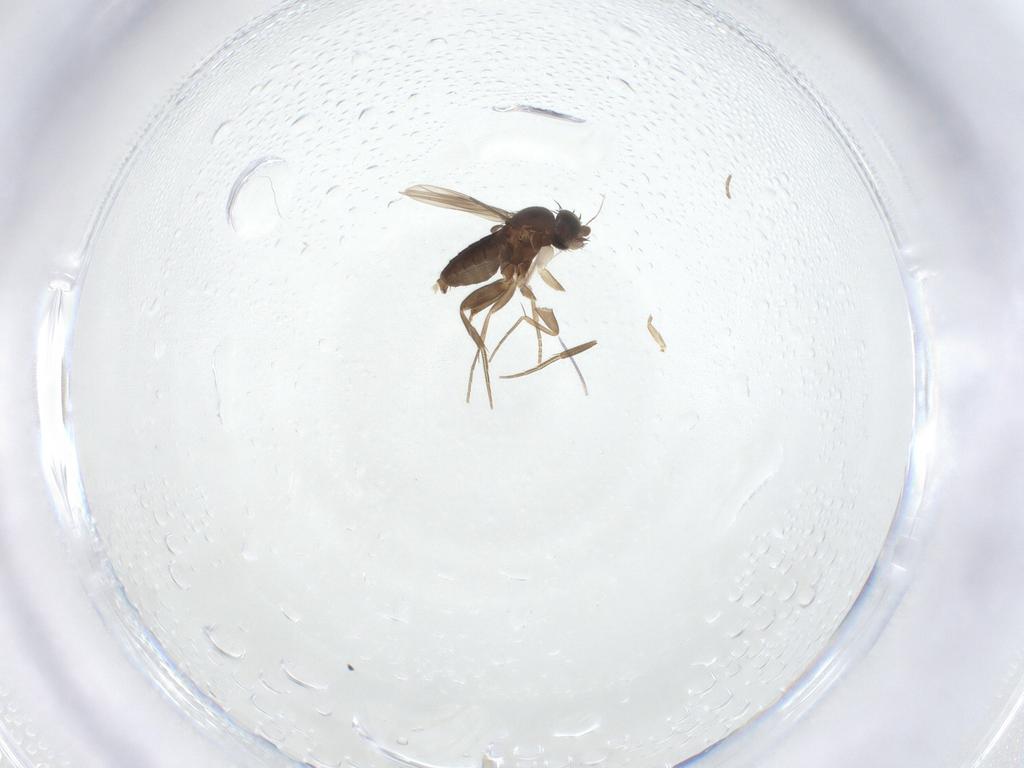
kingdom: Animalia
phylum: Arthropoda
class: Insecta
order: Diptera
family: Phoridae
